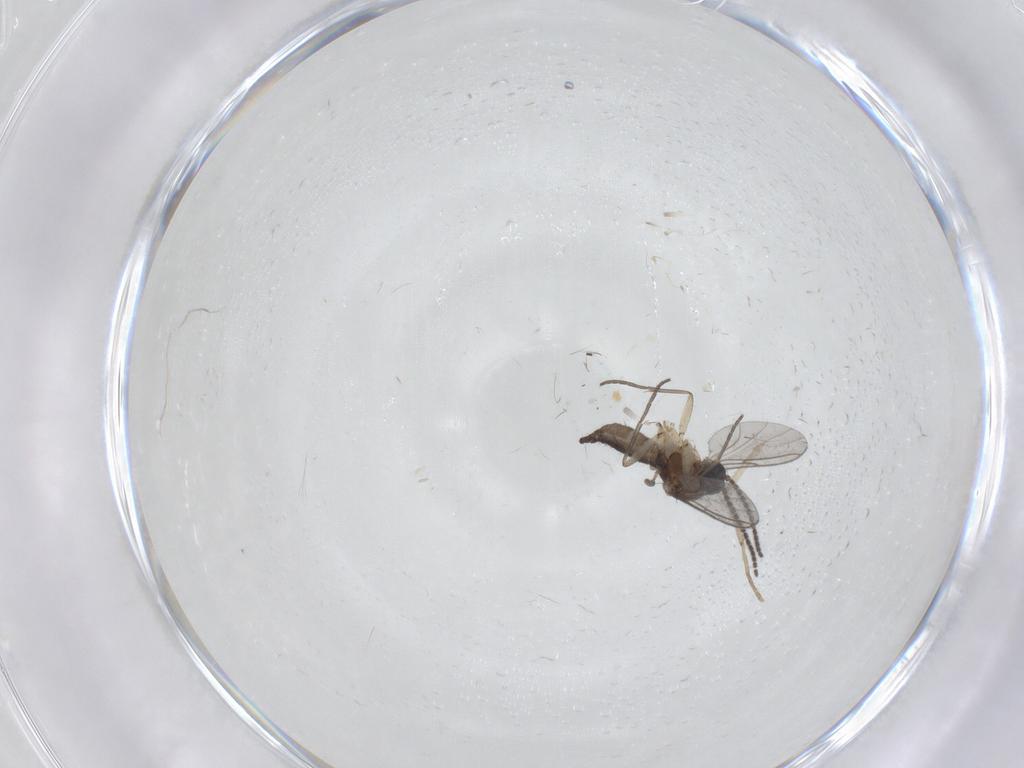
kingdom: Animalia
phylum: Arthropoda
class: Insecta
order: Diptera
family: Sciaridae
